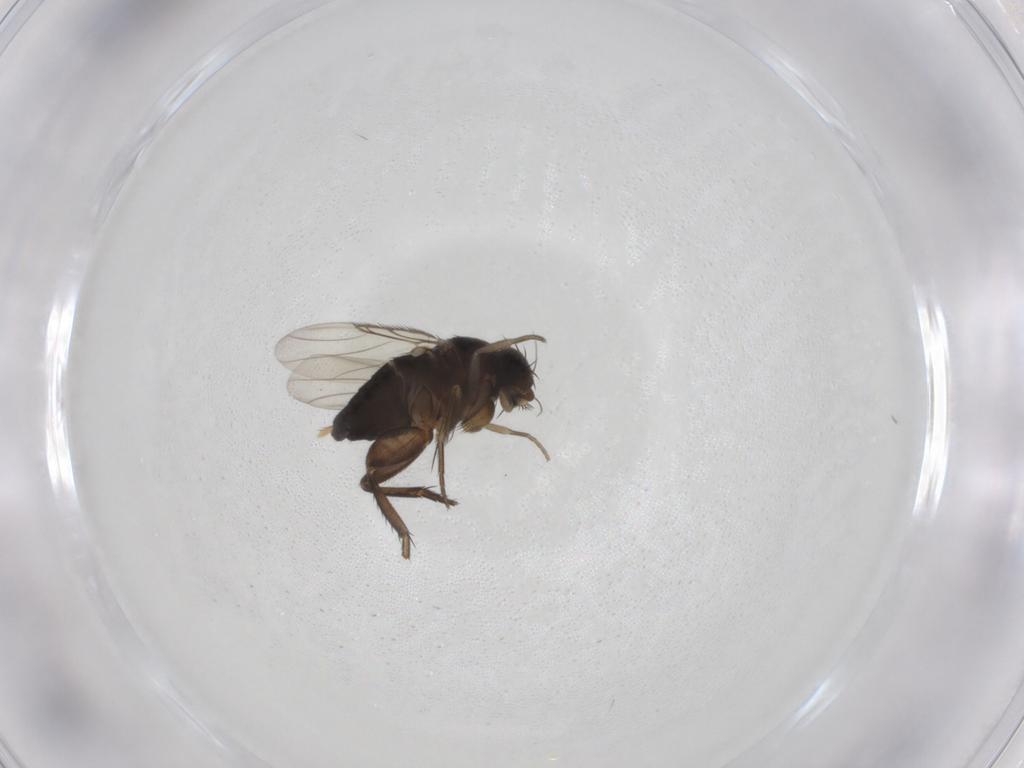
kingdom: Animalia
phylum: Arthropoda
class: Insecta
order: Diptera
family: Phoridae
